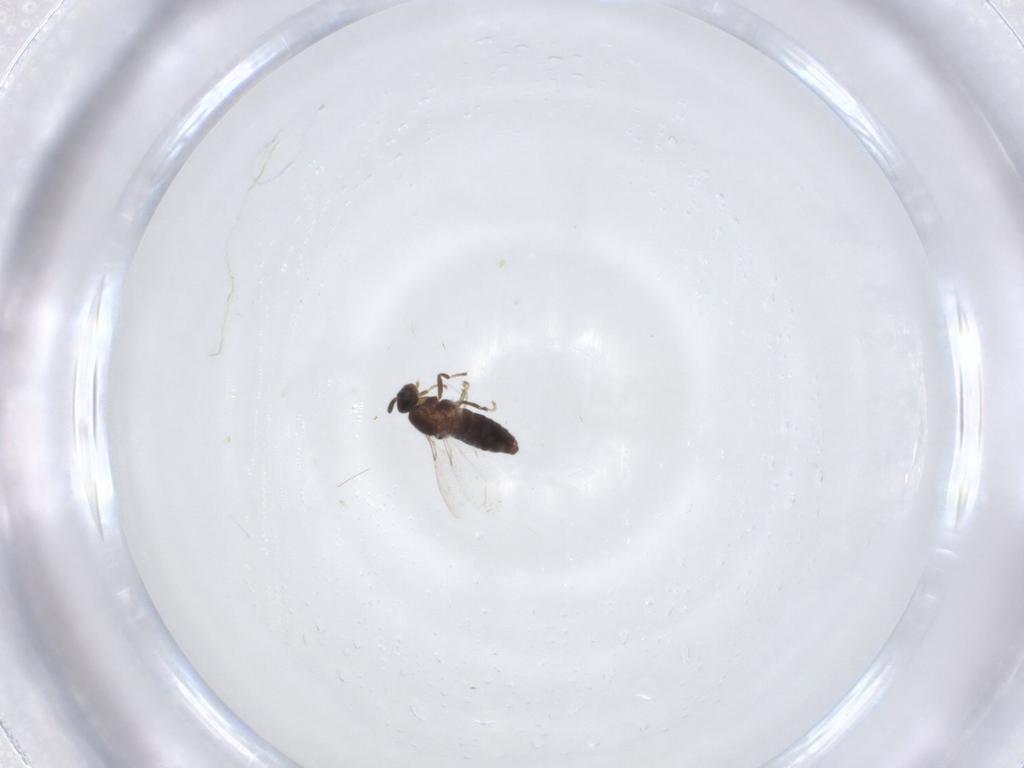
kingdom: Animalia
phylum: Arthropoda
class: Insecta
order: Diptera
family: Scatopsidae
